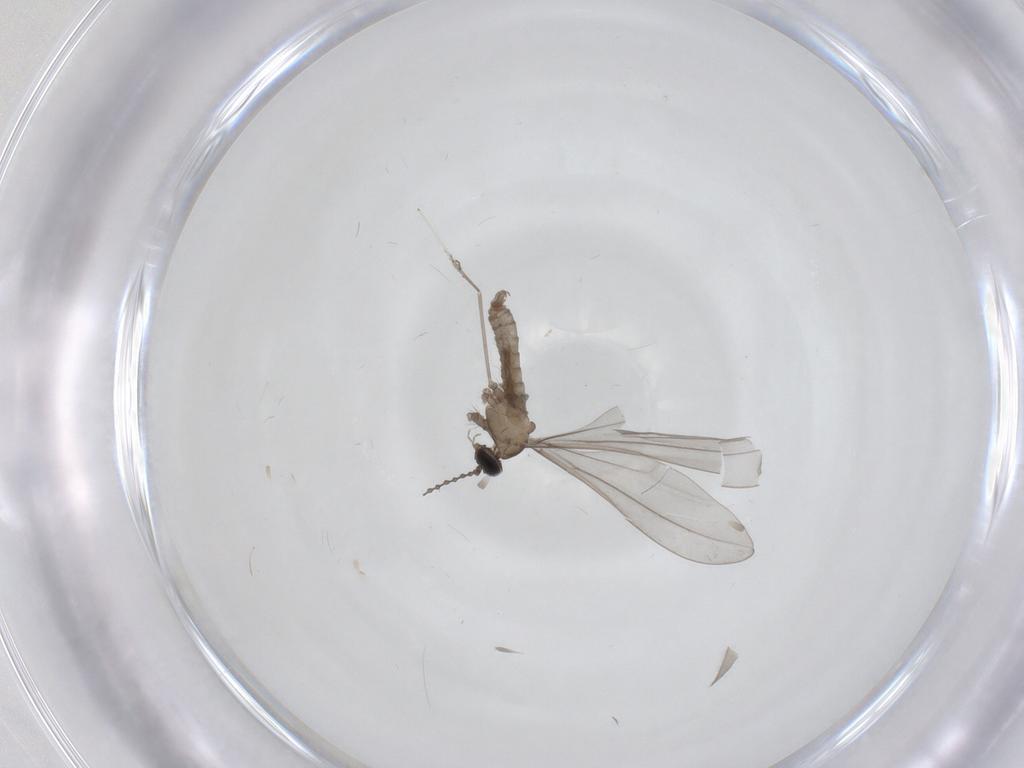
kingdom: Animalia
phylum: Arthropoda
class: Insecta
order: Diptera
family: Cecidomyiidae
